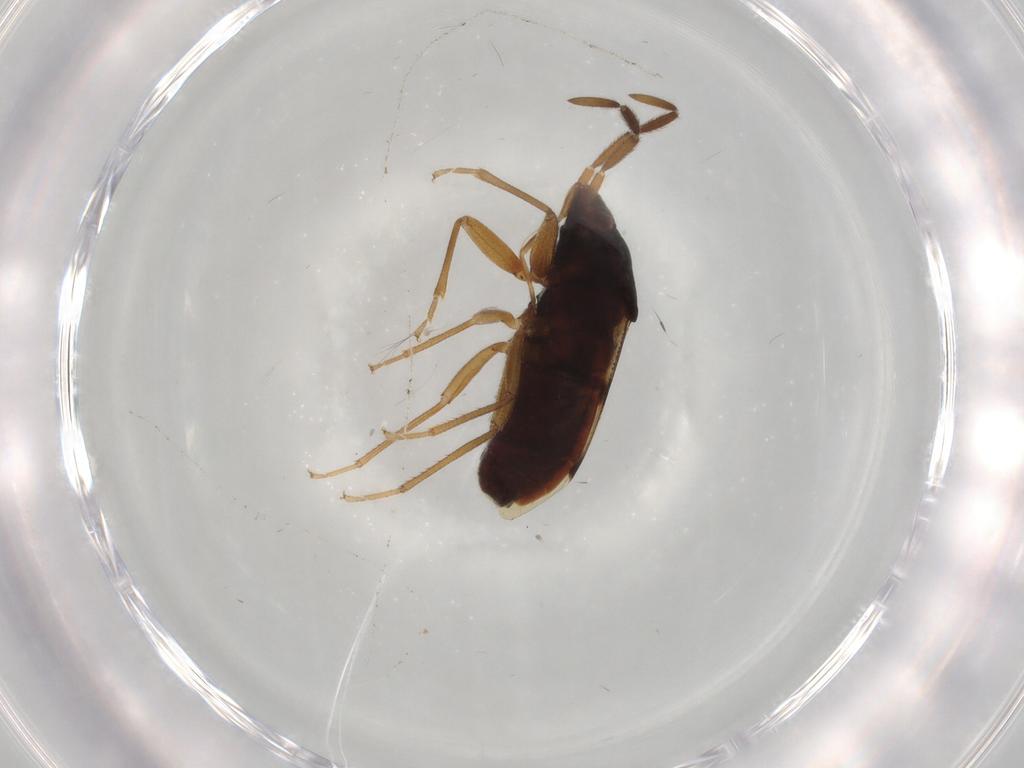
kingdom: Animalia
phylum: Arthropoda
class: Insecta
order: Hemiptera
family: Rhyparochromidae
